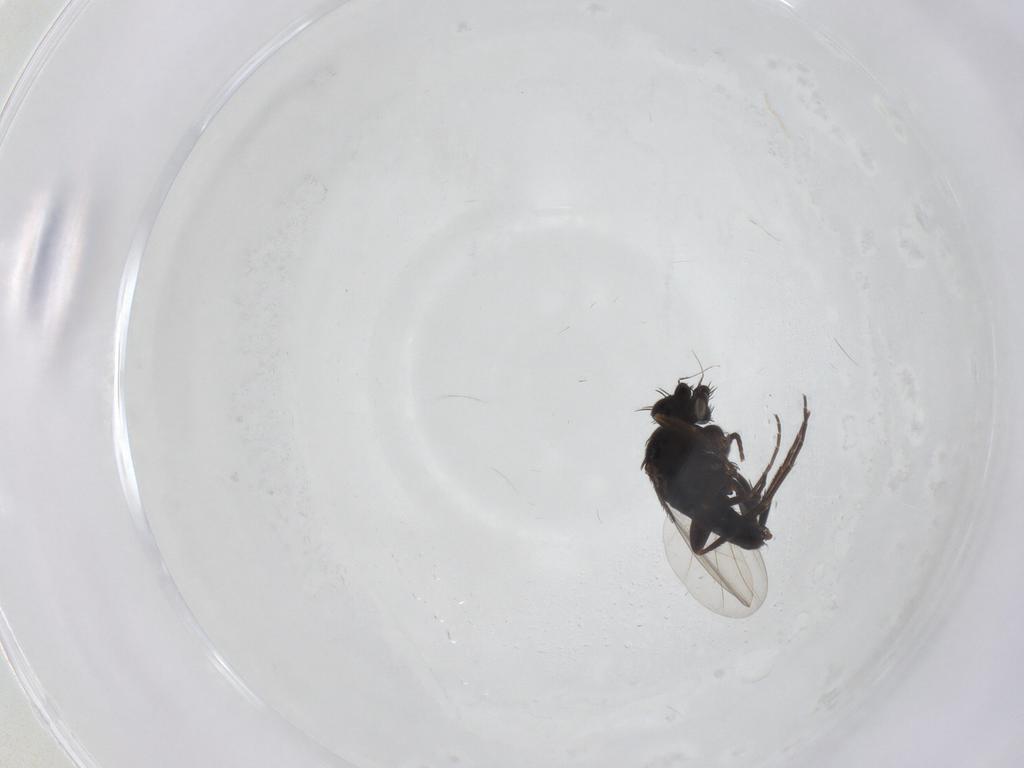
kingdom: Animalia
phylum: Arthropoda
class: Insecta
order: Diptera
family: Phoridae
